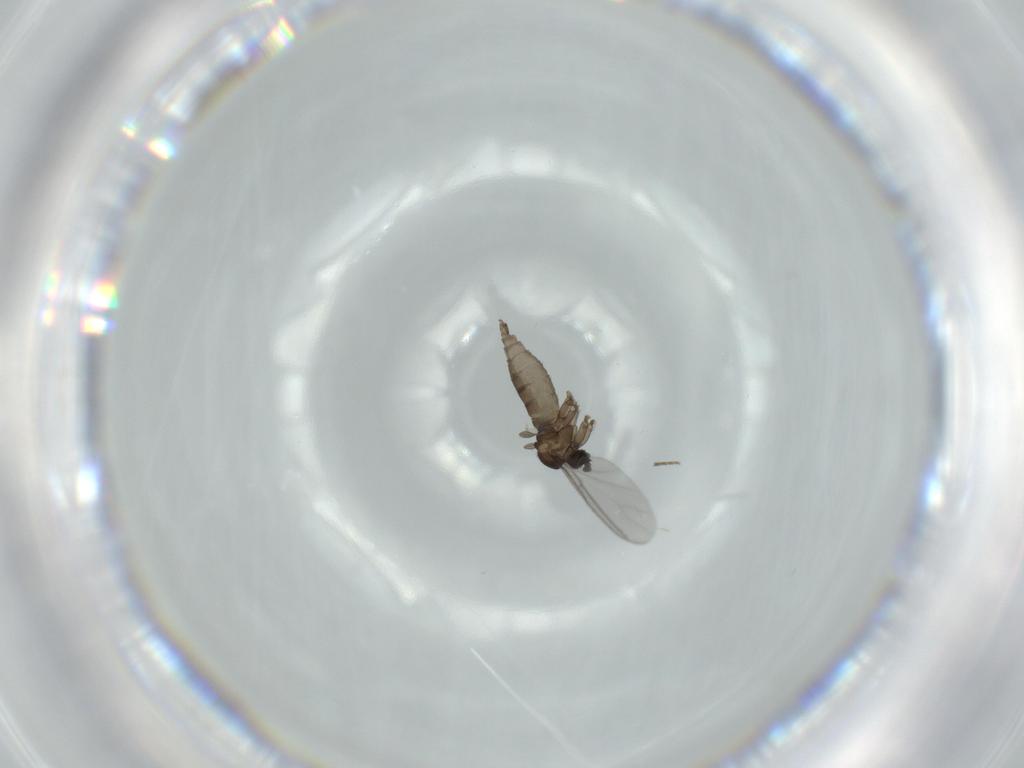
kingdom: Animalia
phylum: Arthropoda
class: Insecta
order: Diptera
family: Sciaridae
